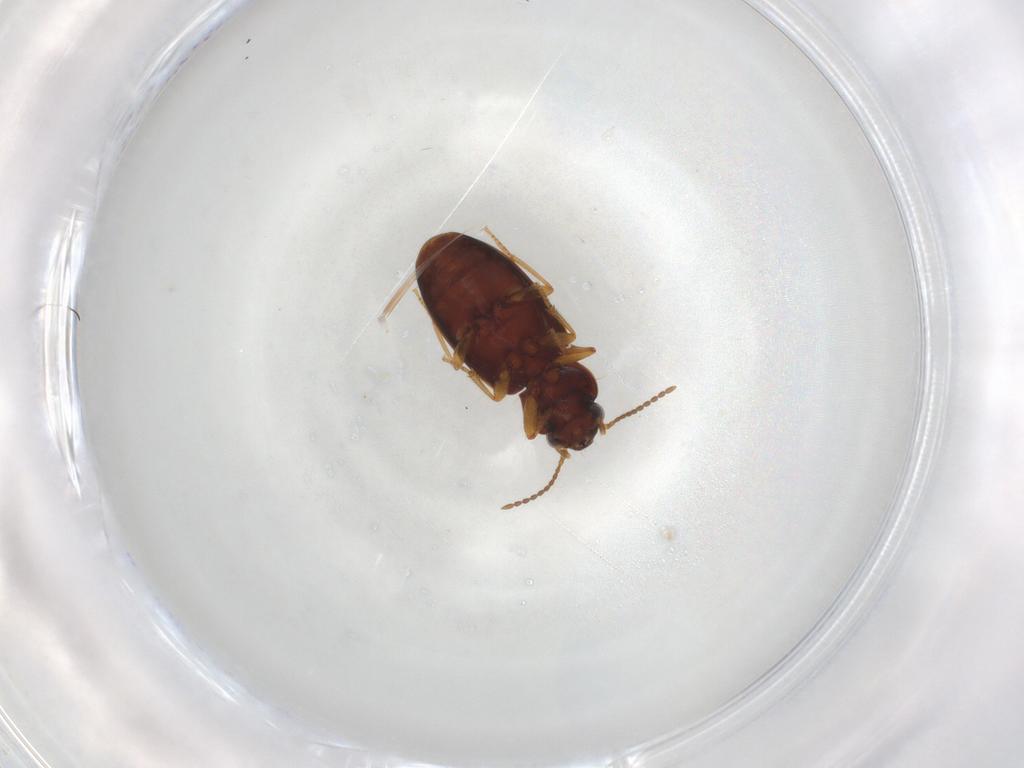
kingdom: Animalia
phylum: Arthropoda
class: Insecta
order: Coleoptera
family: Carabidae
